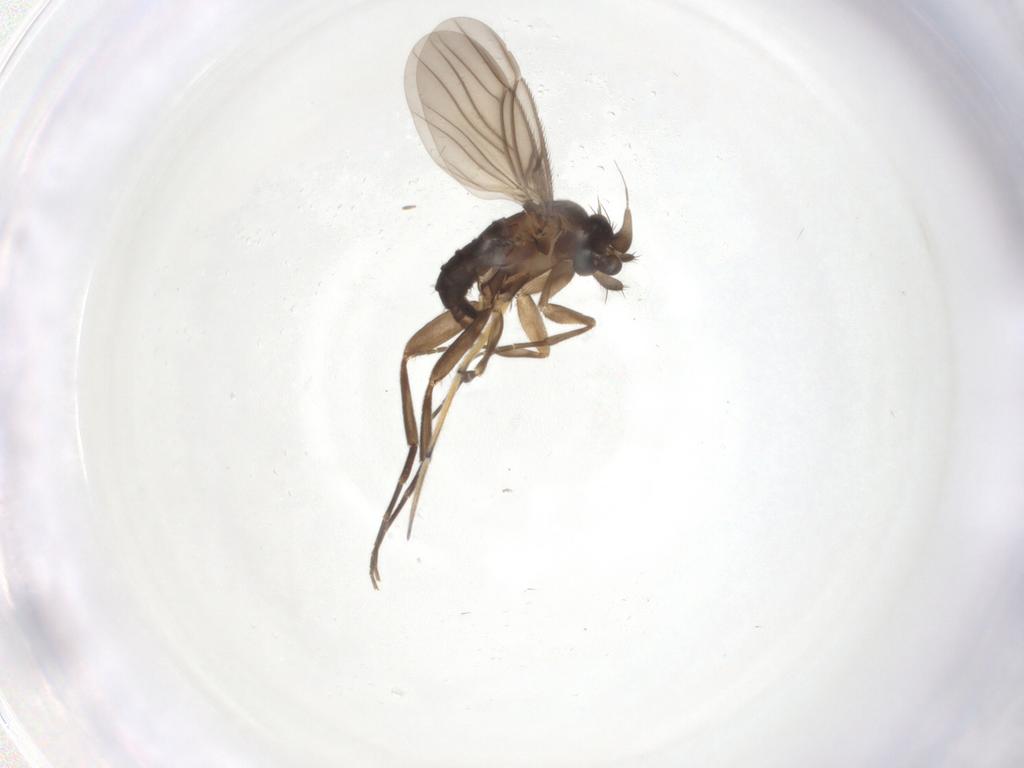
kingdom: Animalia
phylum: Arthropoda
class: Insecta
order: Diptera
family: Phoridae
